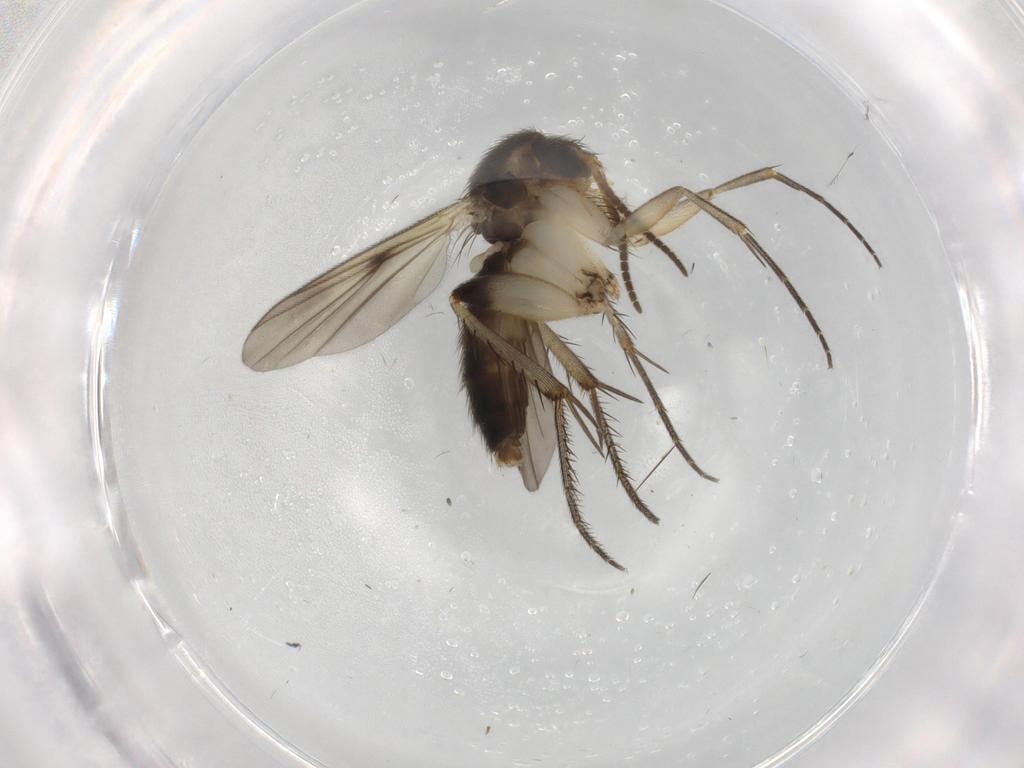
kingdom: Animalia
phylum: Arthropoda
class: Insecta
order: Diptera
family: Mycetophilidae
